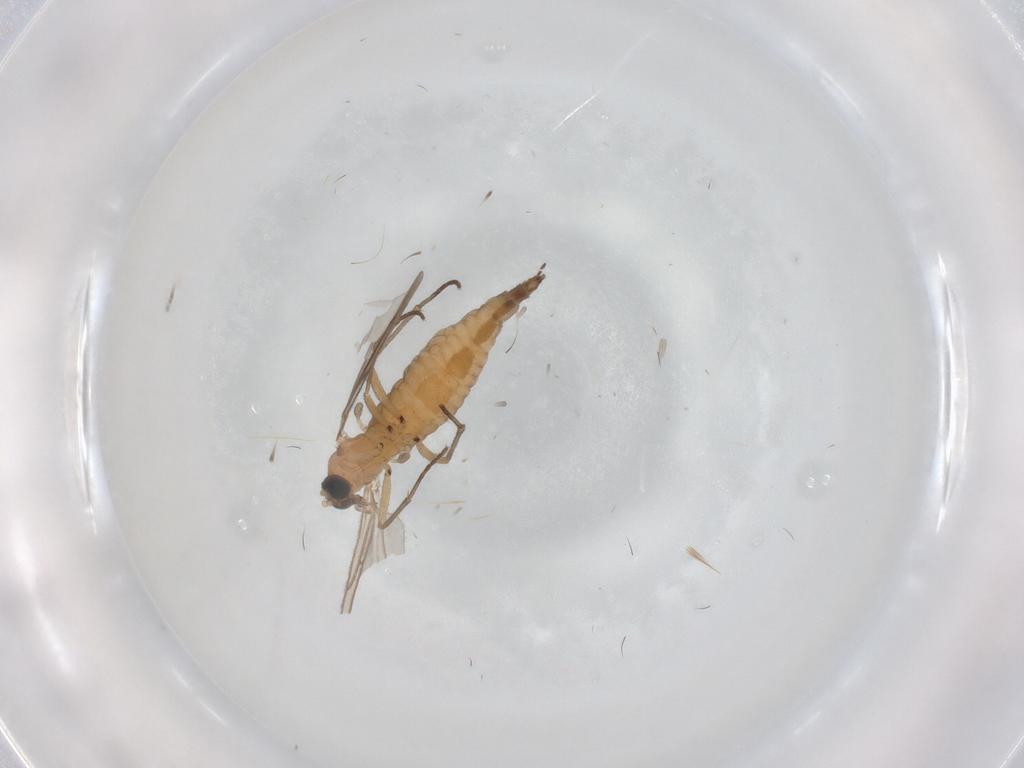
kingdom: Animalia
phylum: Arthropoda
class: Insecta
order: Diptera
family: Sciaridae
